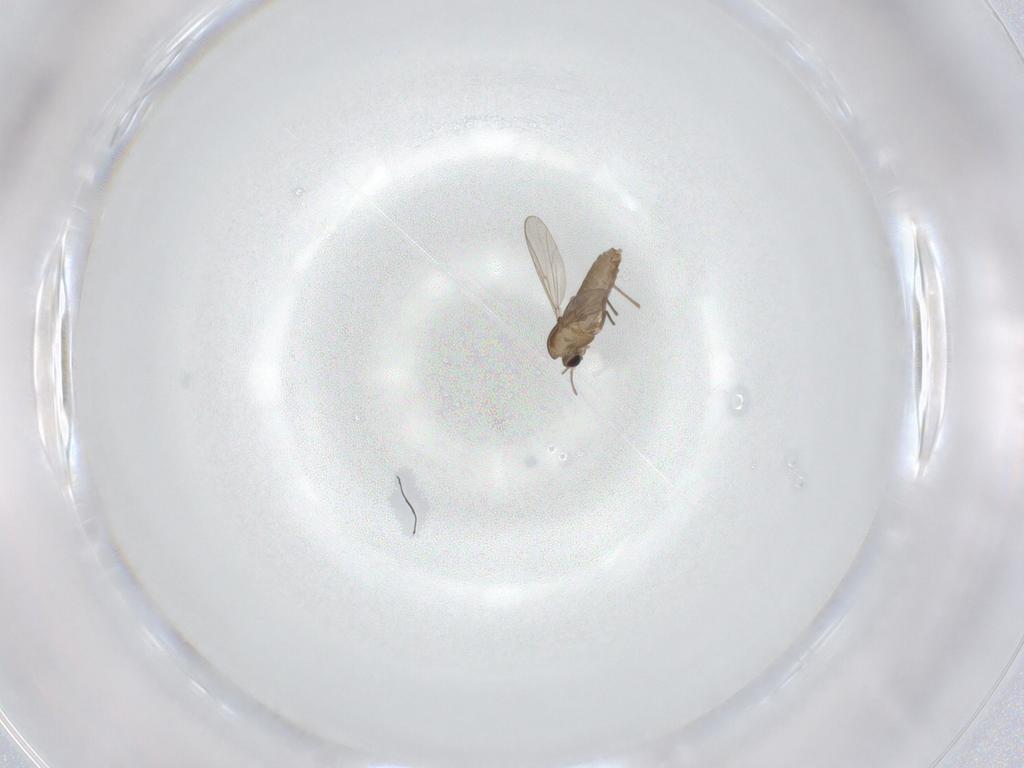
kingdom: Animalia
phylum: Arthropoda
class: Insecta
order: Diptera
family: Chironomidae
